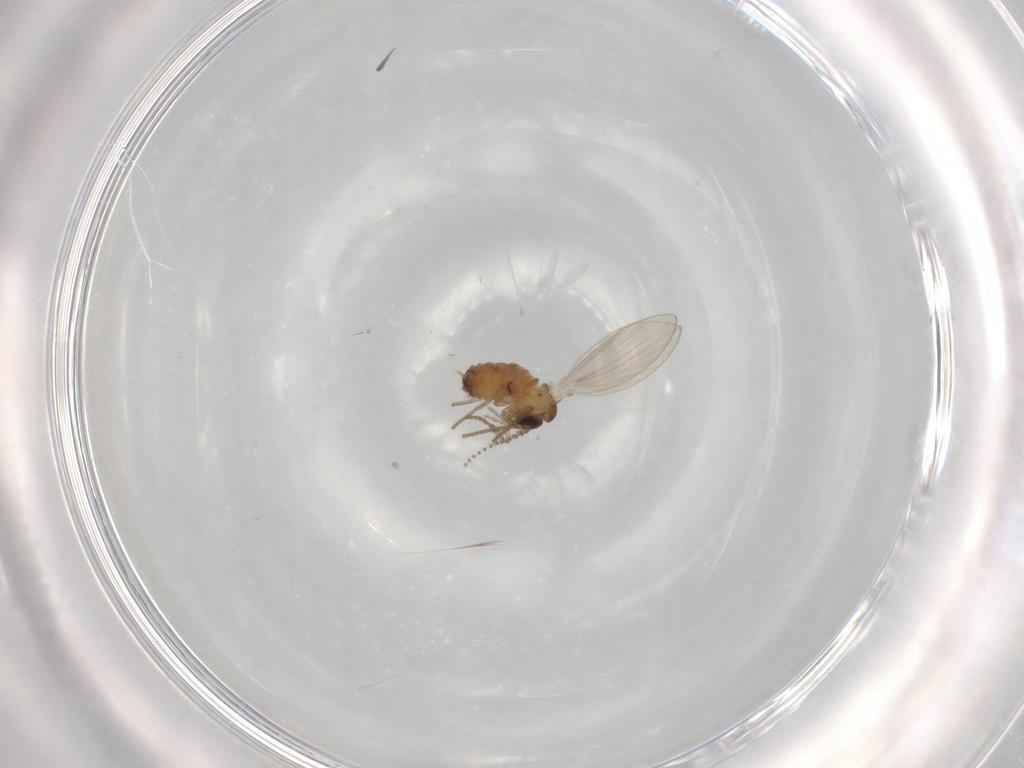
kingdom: Animalia
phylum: Arthropoda
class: Insecta
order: Diptera
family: Psychodidae
